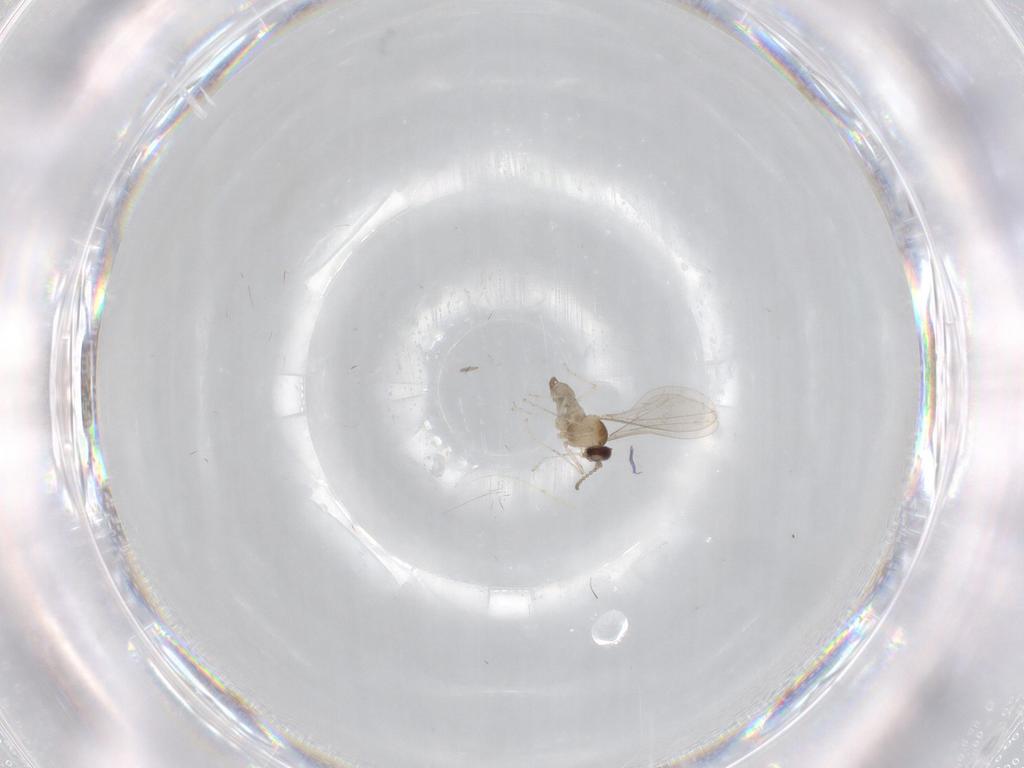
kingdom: Animalia
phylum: Arthropoda
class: Insecta
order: Diptera
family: Cecidomyiidae
